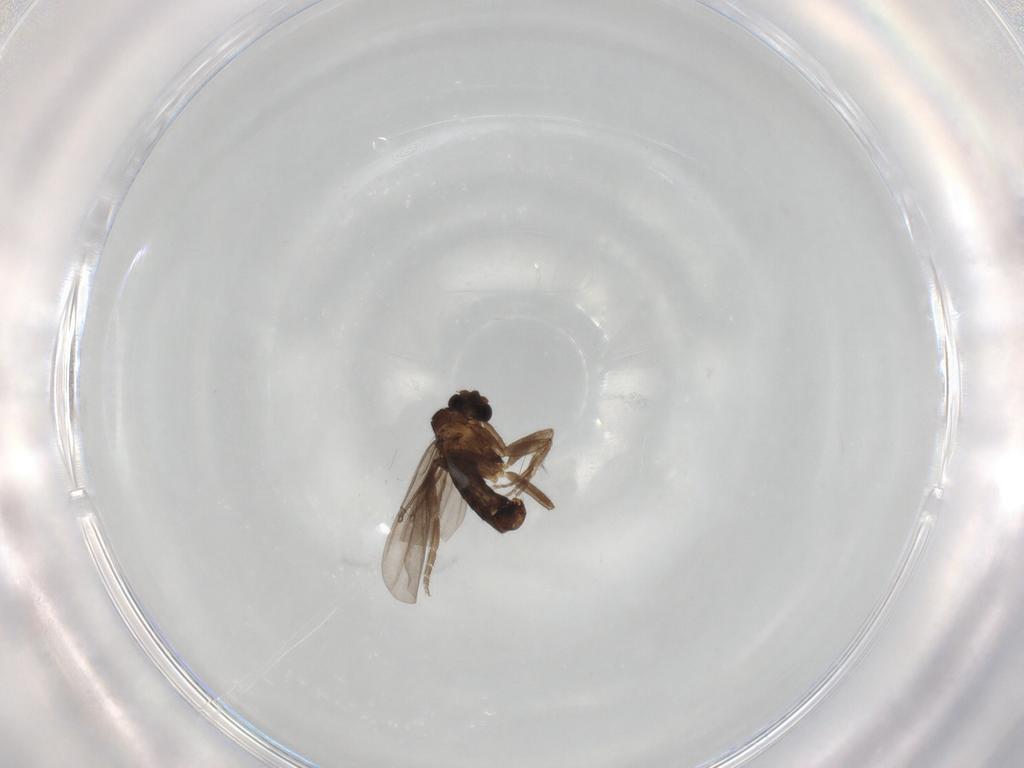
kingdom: Animalia
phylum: Arthropoda
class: Insecta
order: Diptera
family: Phoridae
